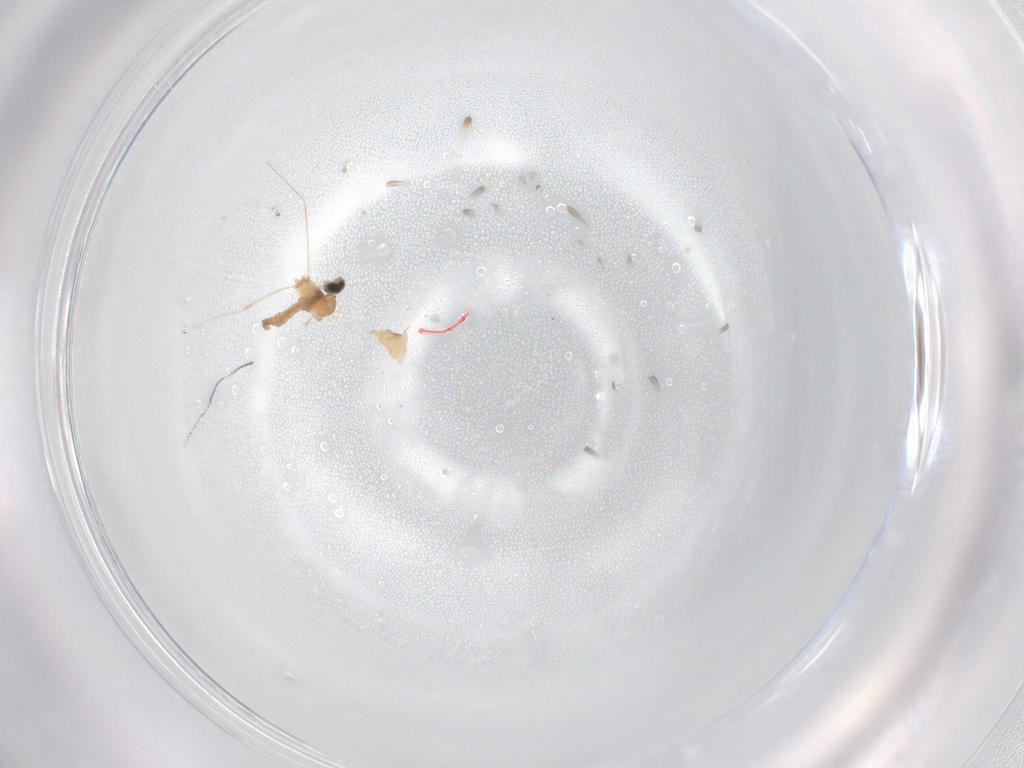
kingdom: Animalia
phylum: Arthropoda
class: Insecta
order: Diptera
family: Cecidomyiidae
